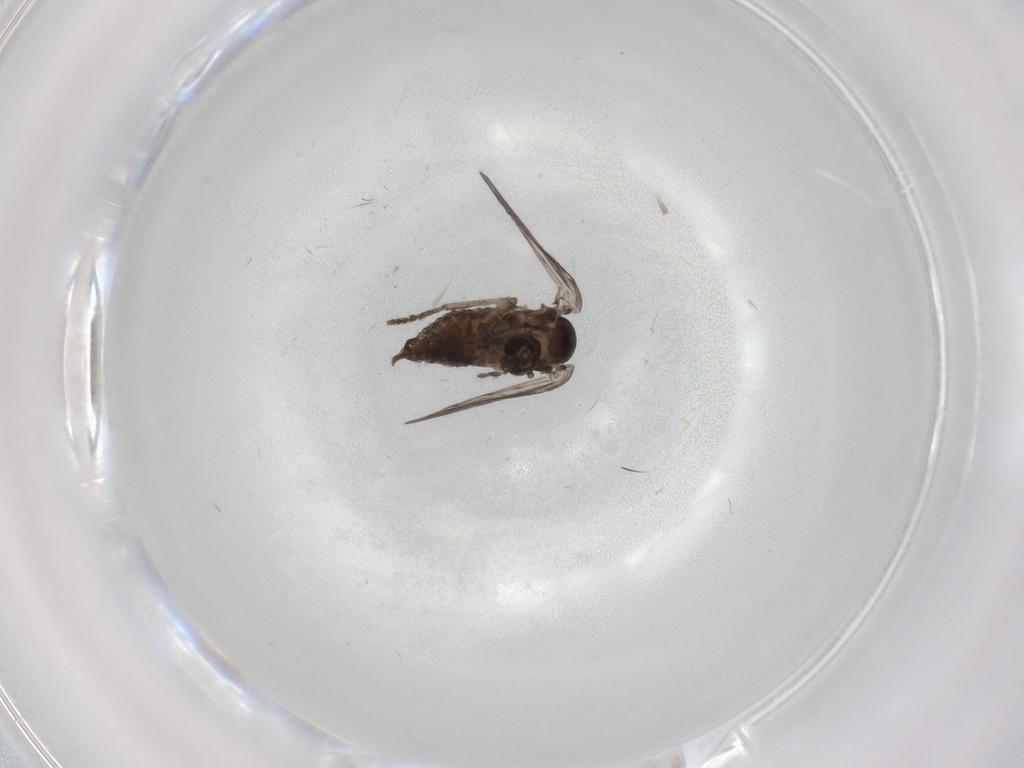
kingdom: Animalia
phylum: Arthropoda
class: Insecta
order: Diptera
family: Psychodidae
